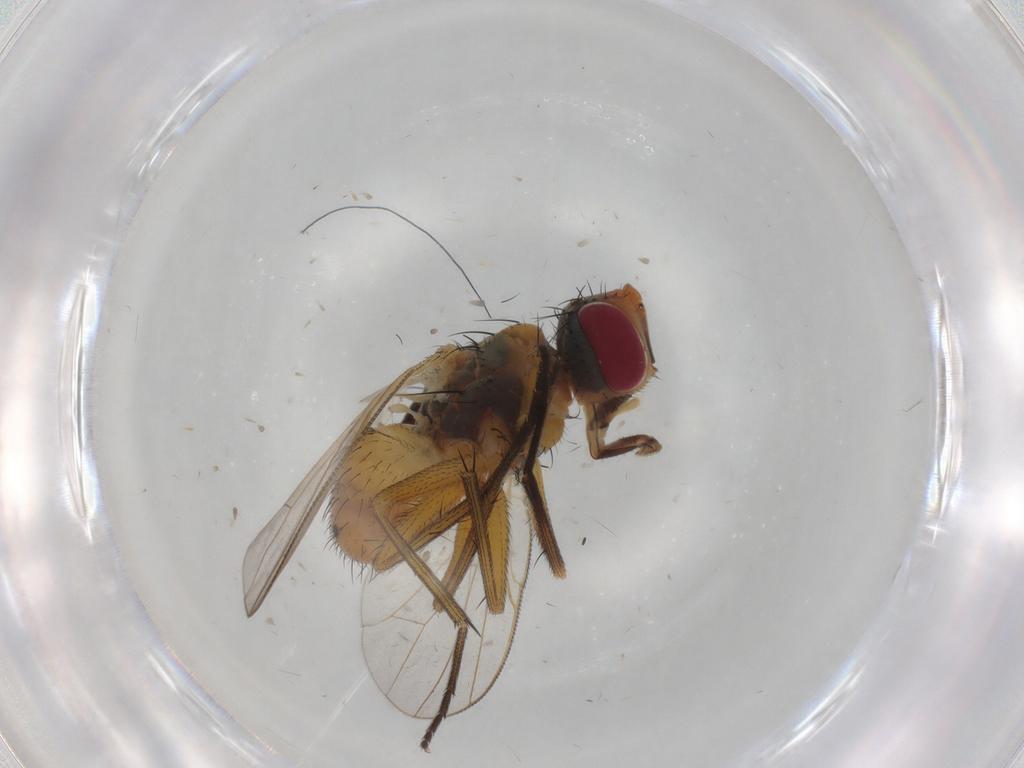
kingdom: Animalia
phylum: Arthropoda
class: Insecta
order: Diptera
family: Muscidae
